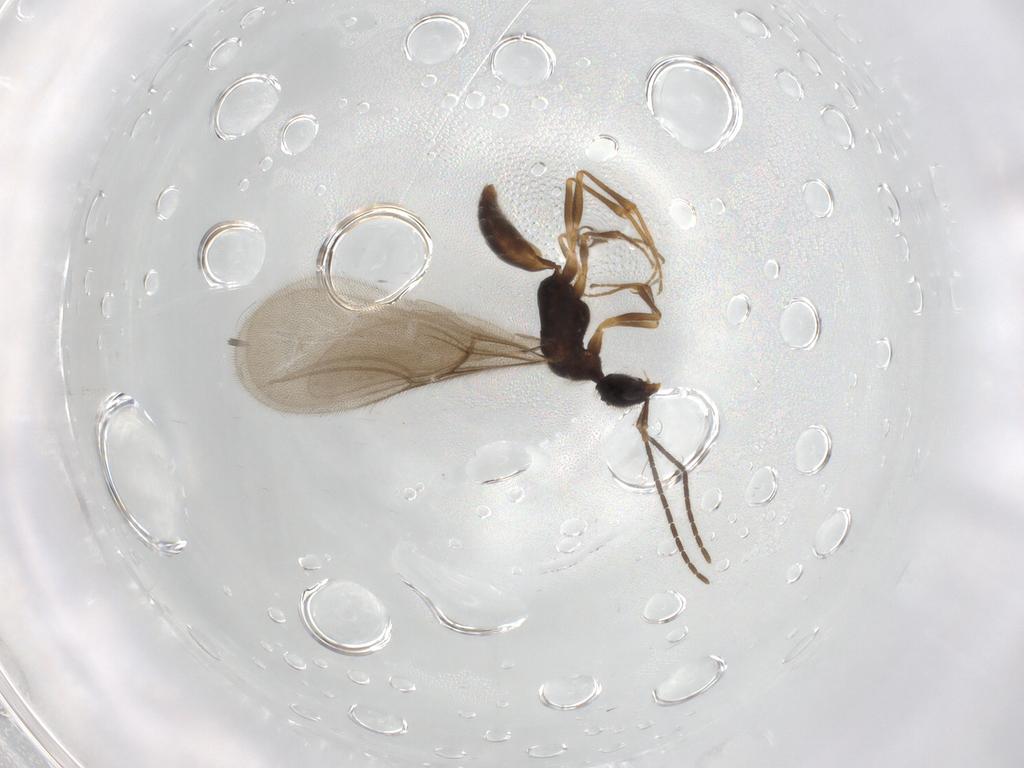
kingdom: Animalia
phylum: Arthropoda
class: Insecta
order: Hymenoptera
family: Bethylidae
